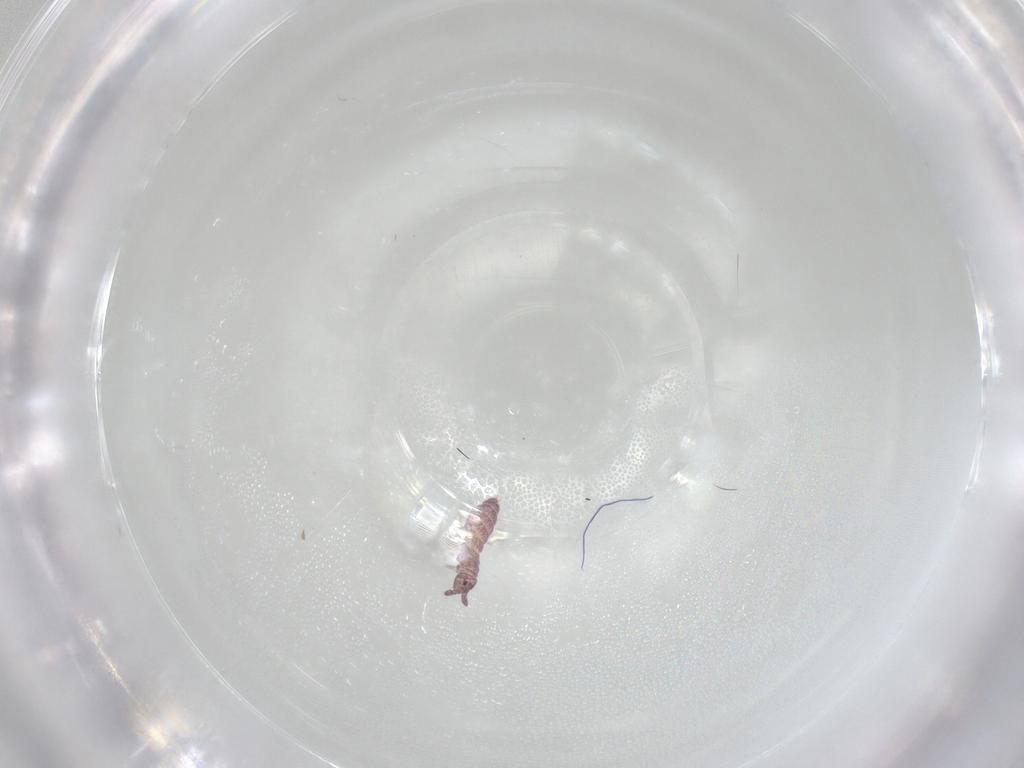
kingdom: Animalia
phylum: Arthropoda
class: Collembola
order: Poduromorpha
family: Hypogastruridae
